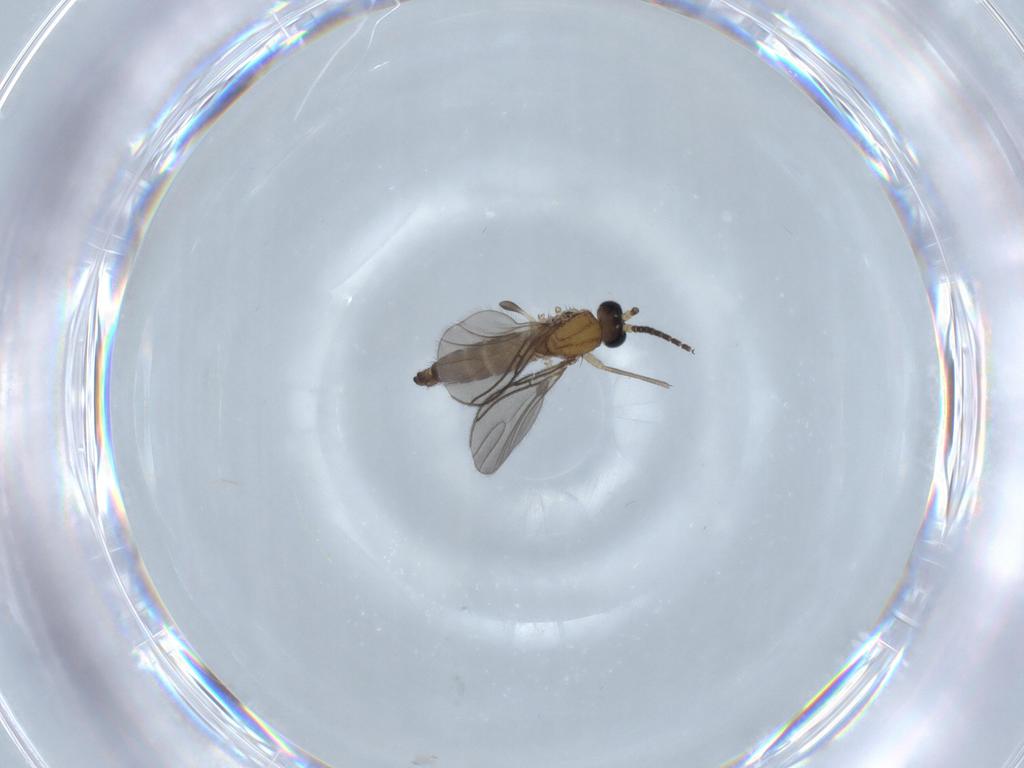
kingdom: Animalia
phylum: Arthropoda
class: Insecta
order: Diptera
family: Sciaridae
